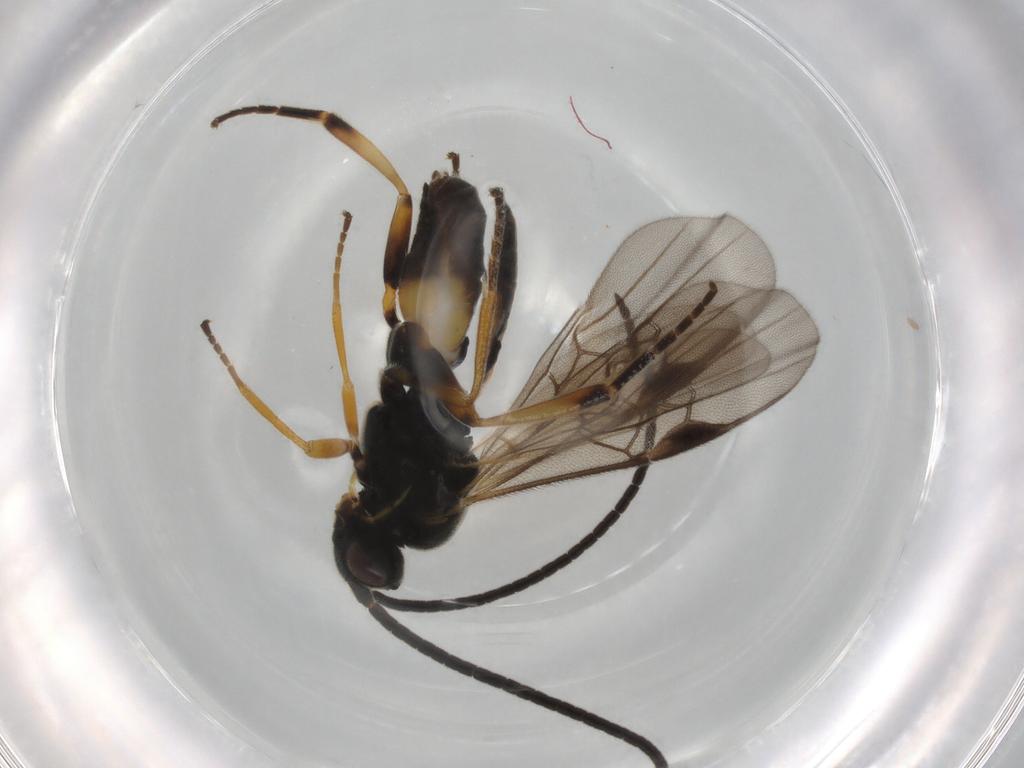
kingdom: Animalia
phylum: Arthropoda
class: Insecta
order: Hymenoptera
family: Braconidae
